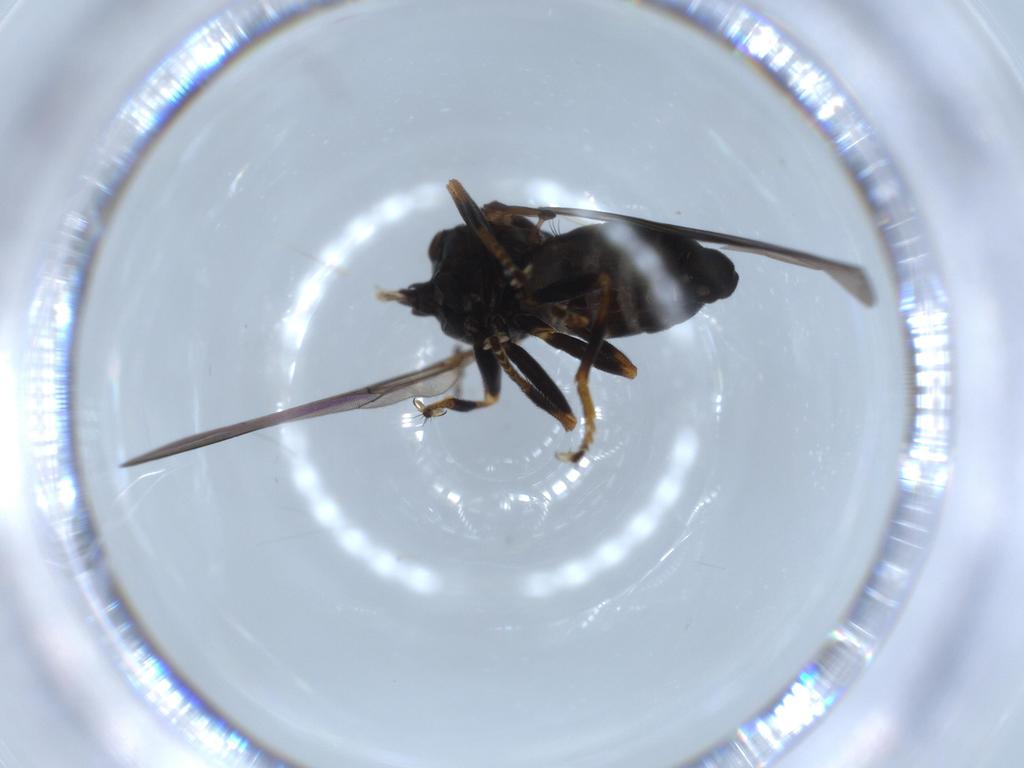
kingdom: Animalia
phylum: Arthropoda
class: Insecta
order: Diptera
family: Pipunculidae
